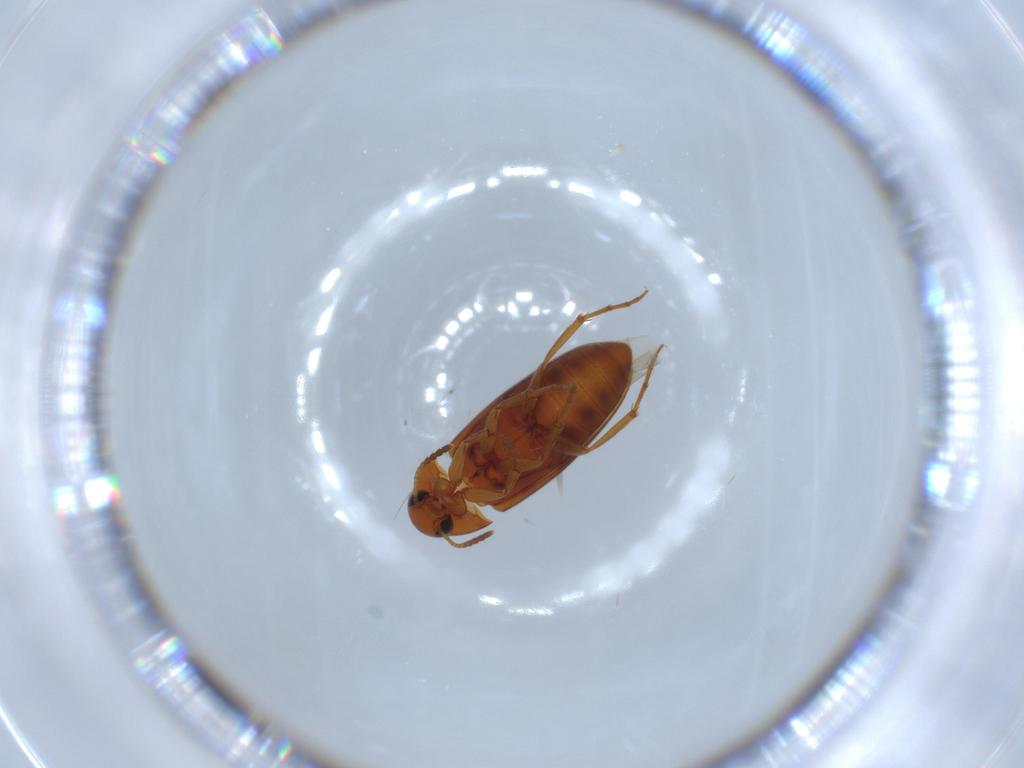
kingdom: Animalia
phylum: Arthropoda
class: Insecta
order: Coleoptera
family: Scraptiidae
